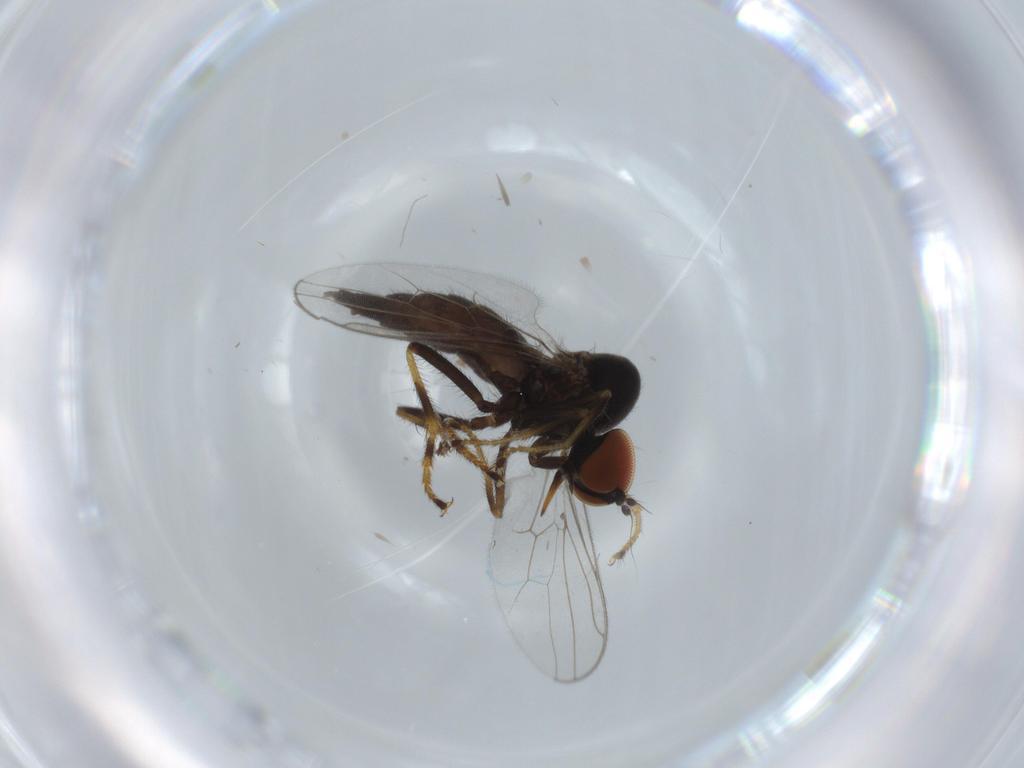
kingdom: Animalia
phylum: Arthropoda
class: Insecta
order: Diptera
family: Hybotidae
